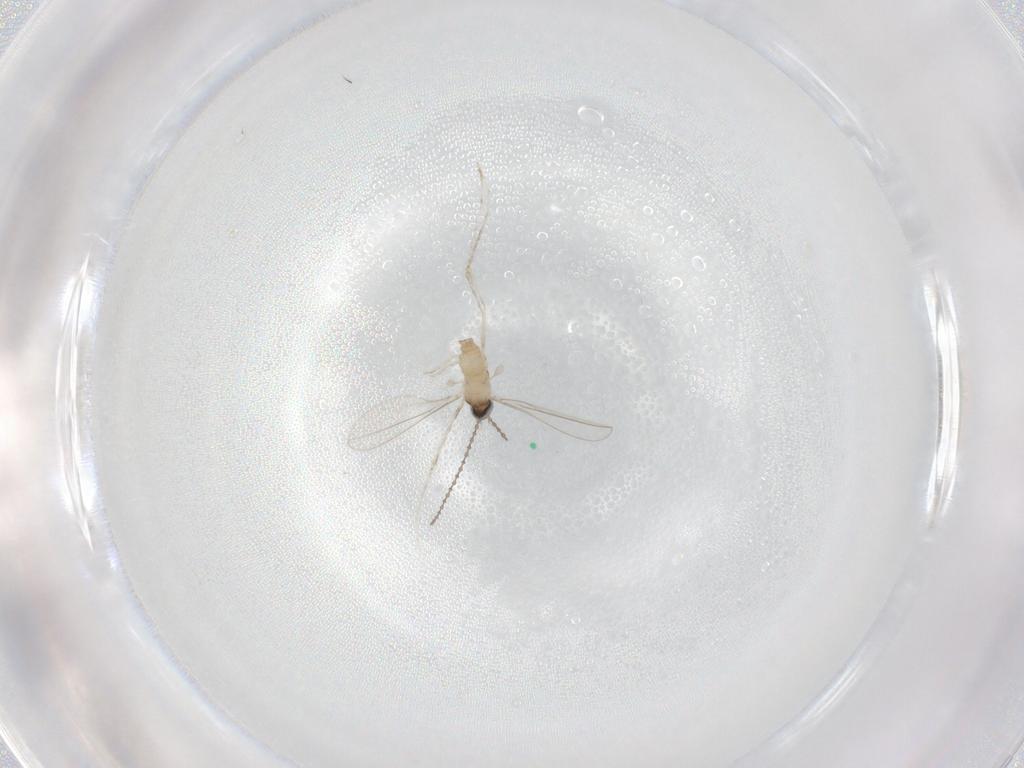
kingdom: Animalia
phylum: Arthropoda
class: Insecta
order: Diptera
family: Cecidomyiidae
